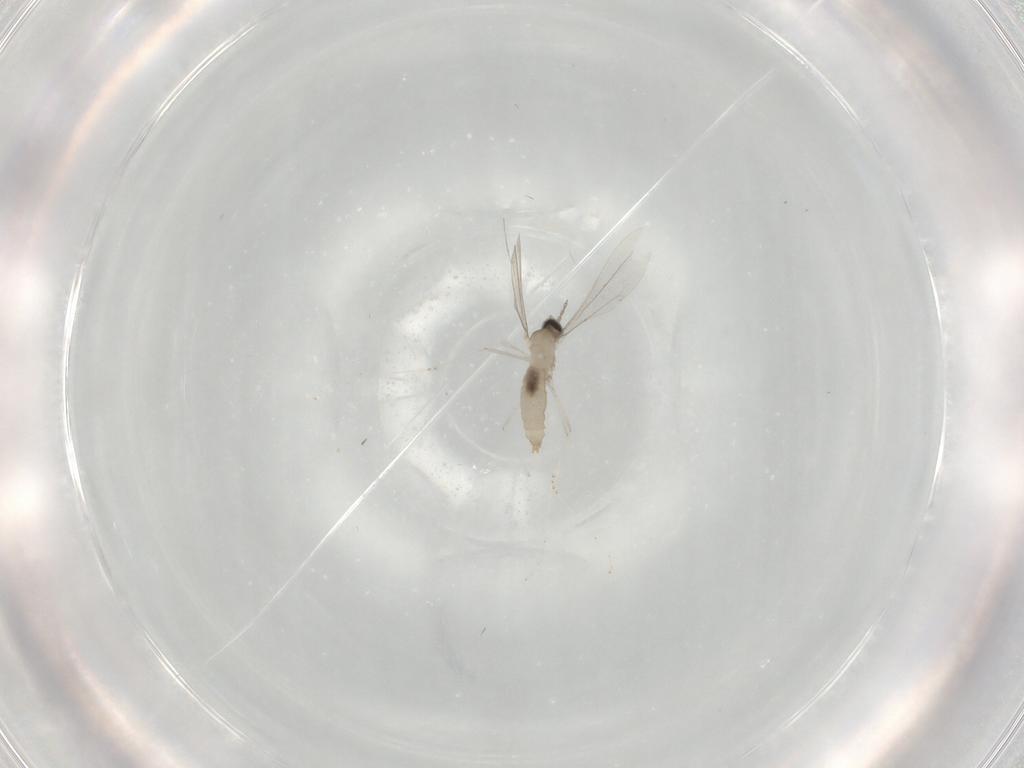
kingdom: Animalia
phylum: Arthropoda
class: Insecta
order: Diptera
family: Cecidomyiidae
